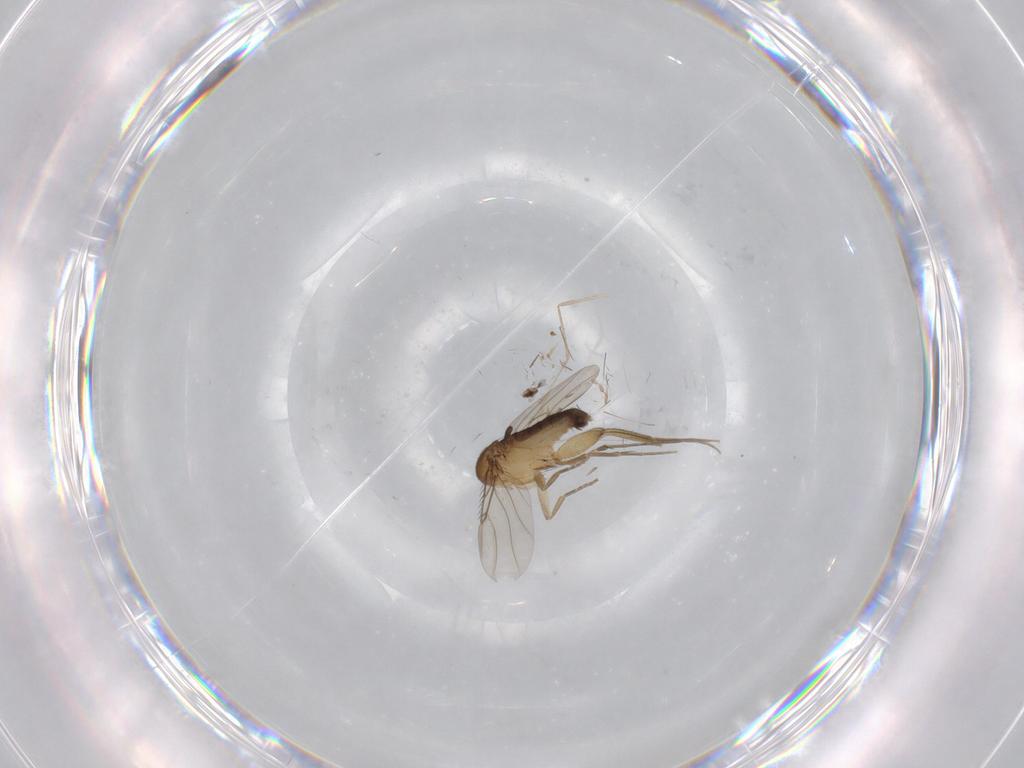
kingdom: Animalia
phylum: Arthropoda
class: Insecta
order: Diptera
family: Phoridae
